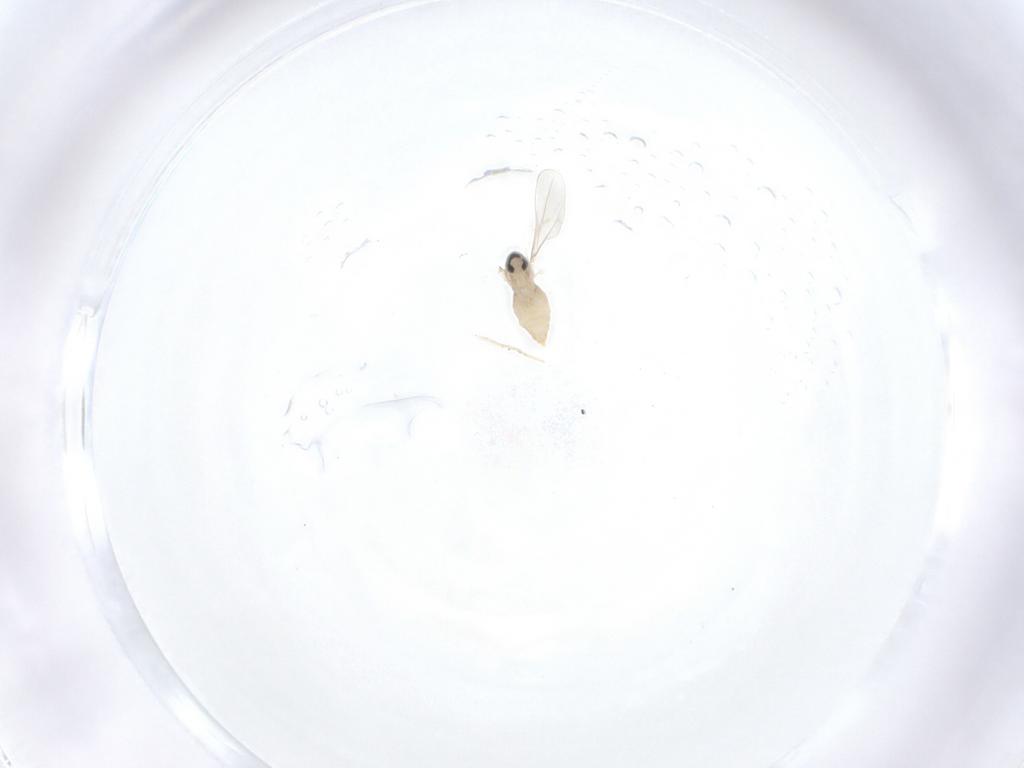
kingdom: Animalia
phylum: Arthropoda
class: Insecta
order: Diptera
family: Cecidomyiidae
